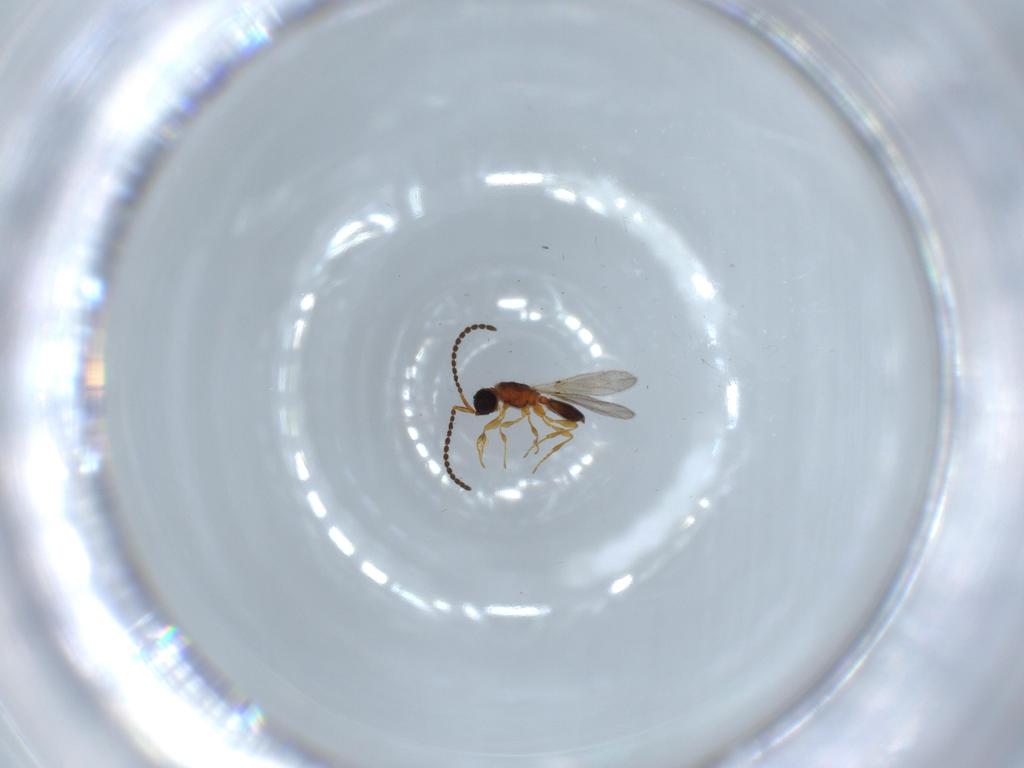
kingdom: Animalia
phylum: Arthropoda
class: Insecta
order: Hymenoptera
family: Diapriidae
